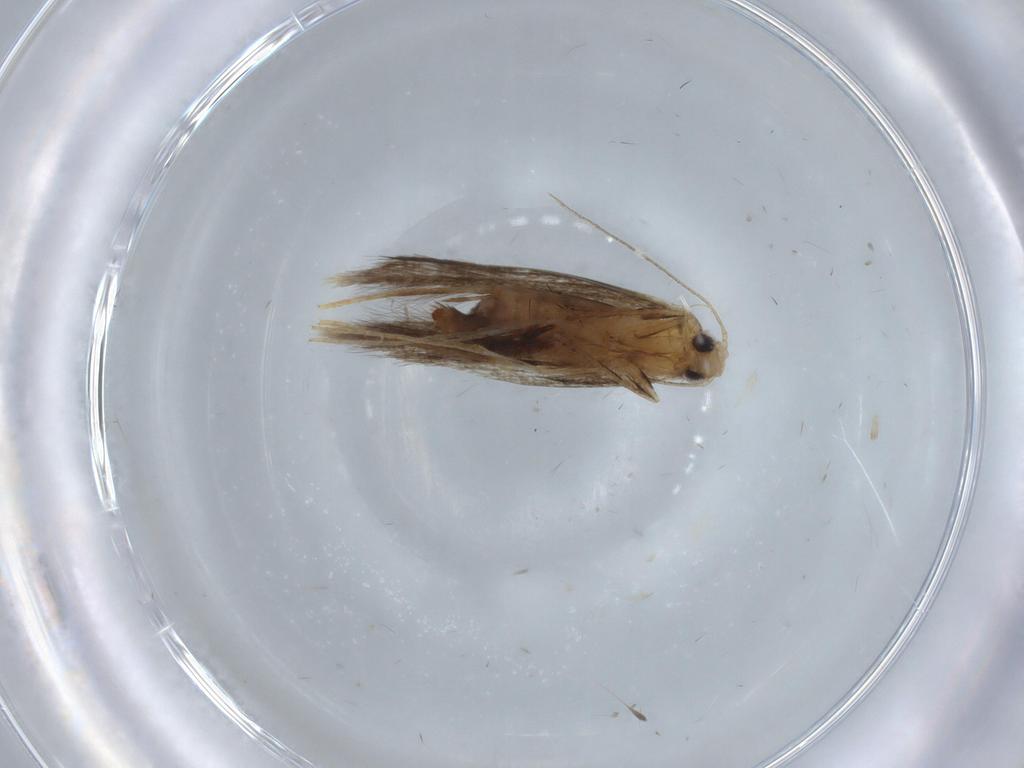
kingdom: Animalia
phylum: Arthropoda
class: Insecta
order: Lepidoptera
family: Tischeriidae
